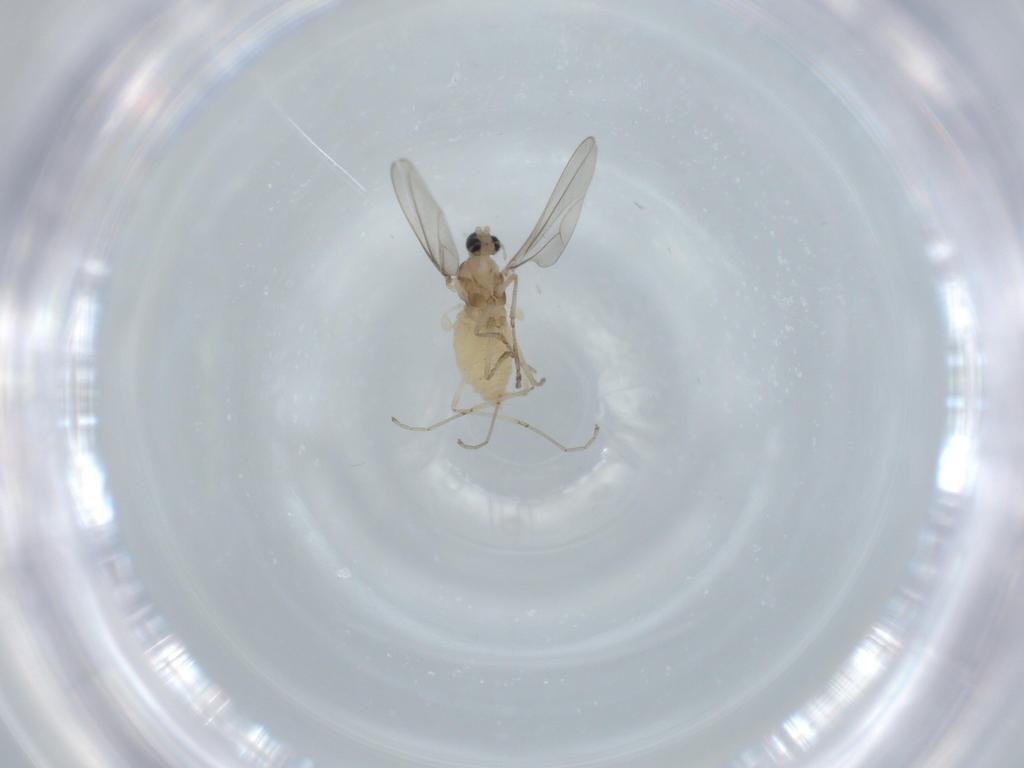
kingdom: Animalia
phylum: Arthropoda
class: Insecta
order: Diptera
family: Cecidomyiidae
